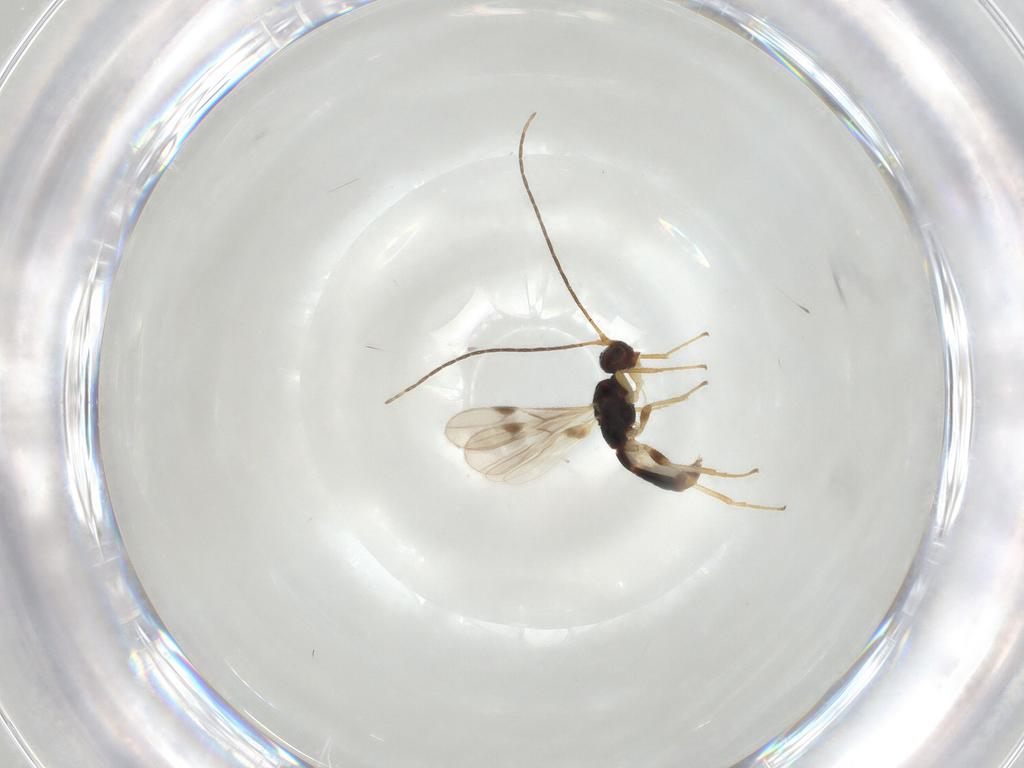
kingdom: Animalia
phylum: Arthropoda
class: Insecta
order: Hymenoptera
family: Braconidae
